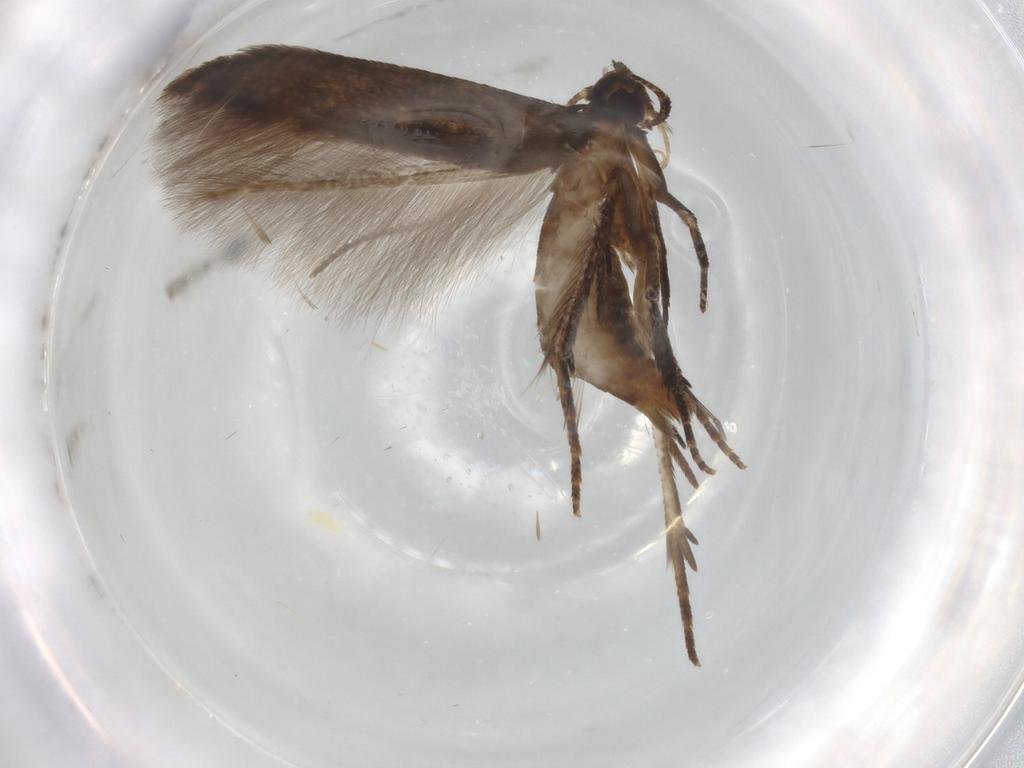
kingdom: Animalia
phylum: Arthropoda
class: Insecta
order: Lepidoptera
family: Cosmopterigidae
